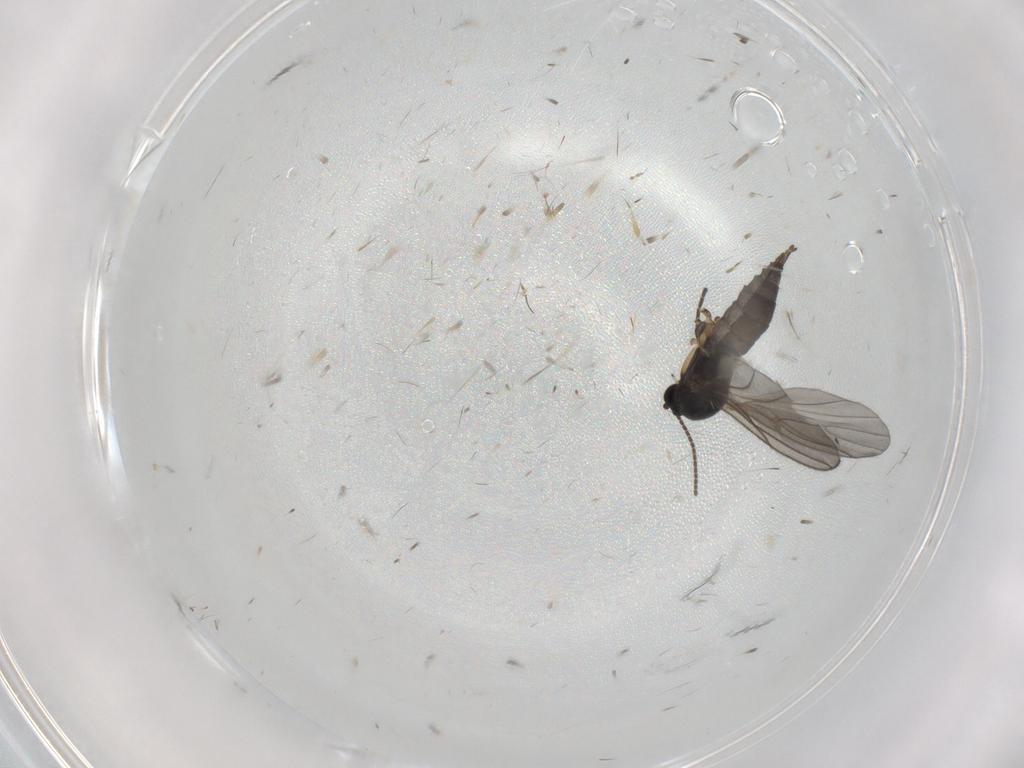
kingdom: Animalia
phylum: Arthropoda
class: Insecta
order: Diptera
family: Sciaridae
